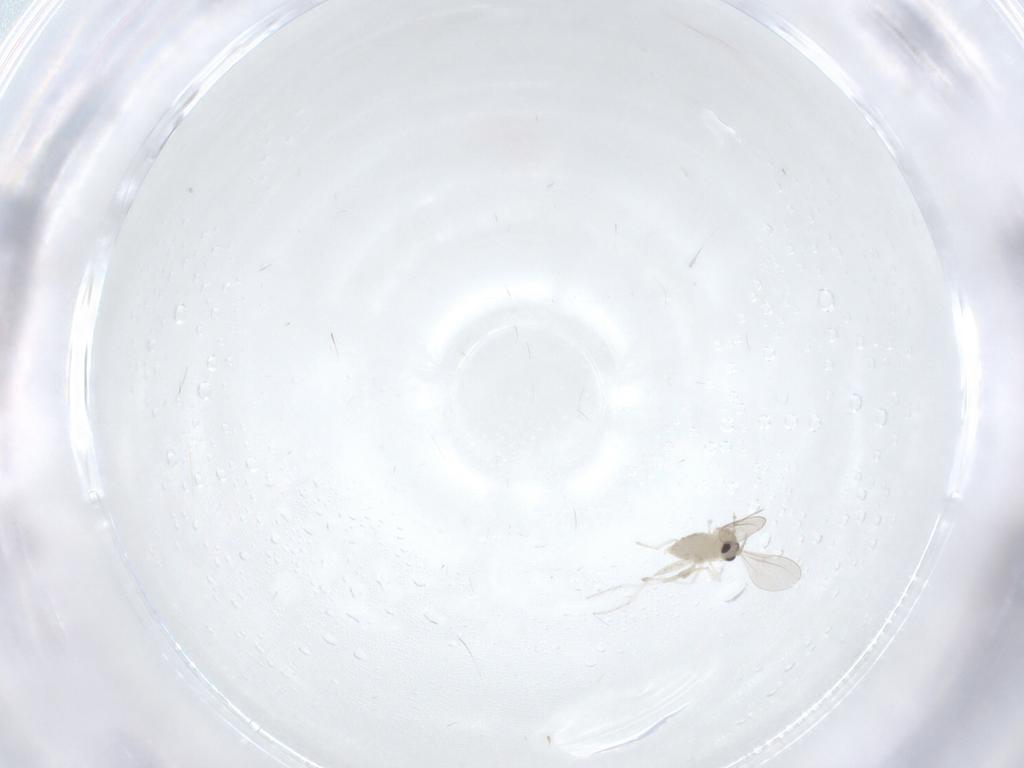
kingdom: Animalia
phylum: Arthropoda
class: Insecta
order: Diptera
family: Cecidomyiidae
